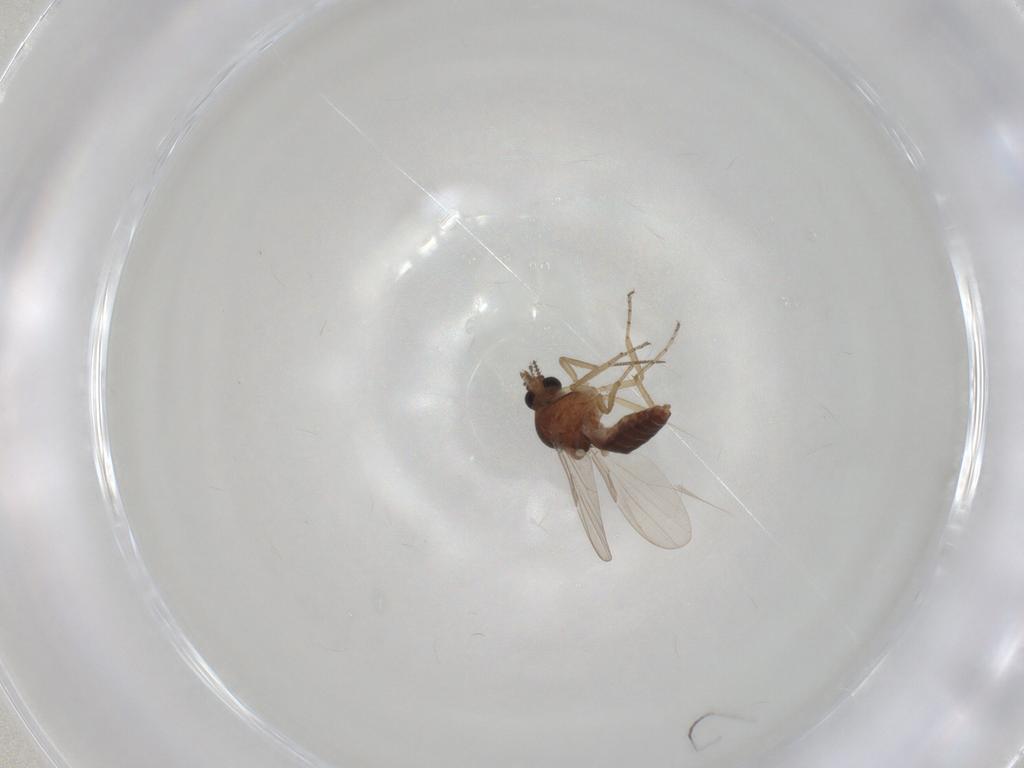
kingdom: Animalia
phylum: Arthropoda
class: Insecta
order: Diptera
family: Ceratopogonidae
